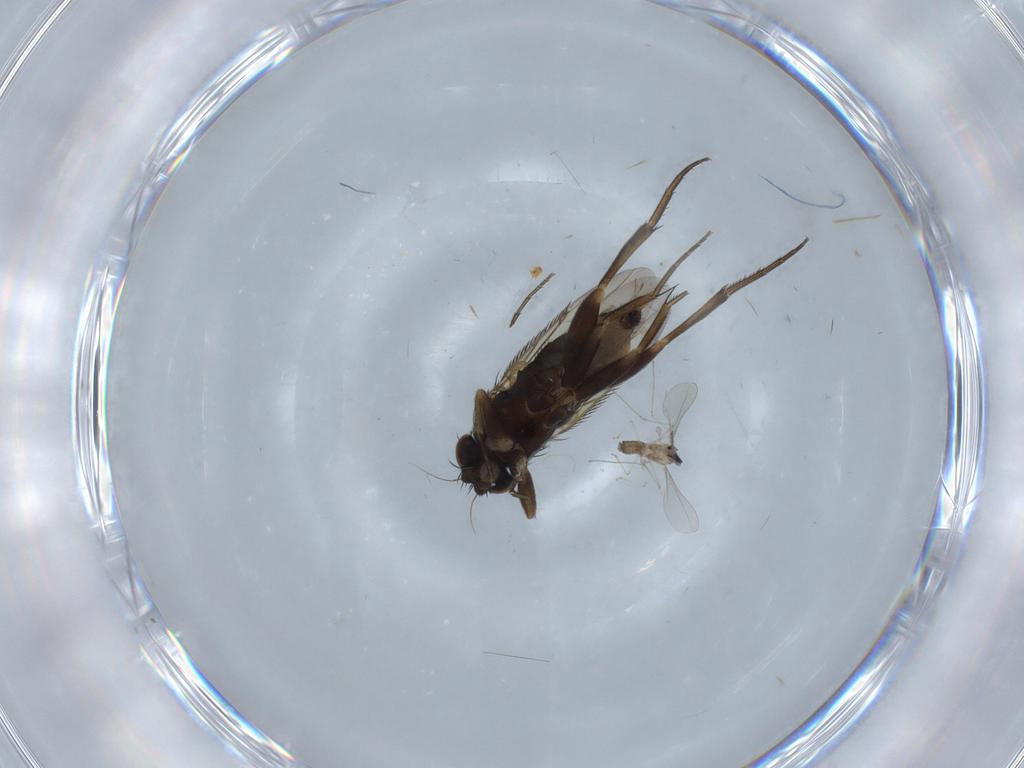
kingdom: Animalia
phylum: Arthropoda
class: Insecta
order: Diptera
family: Phoridae
